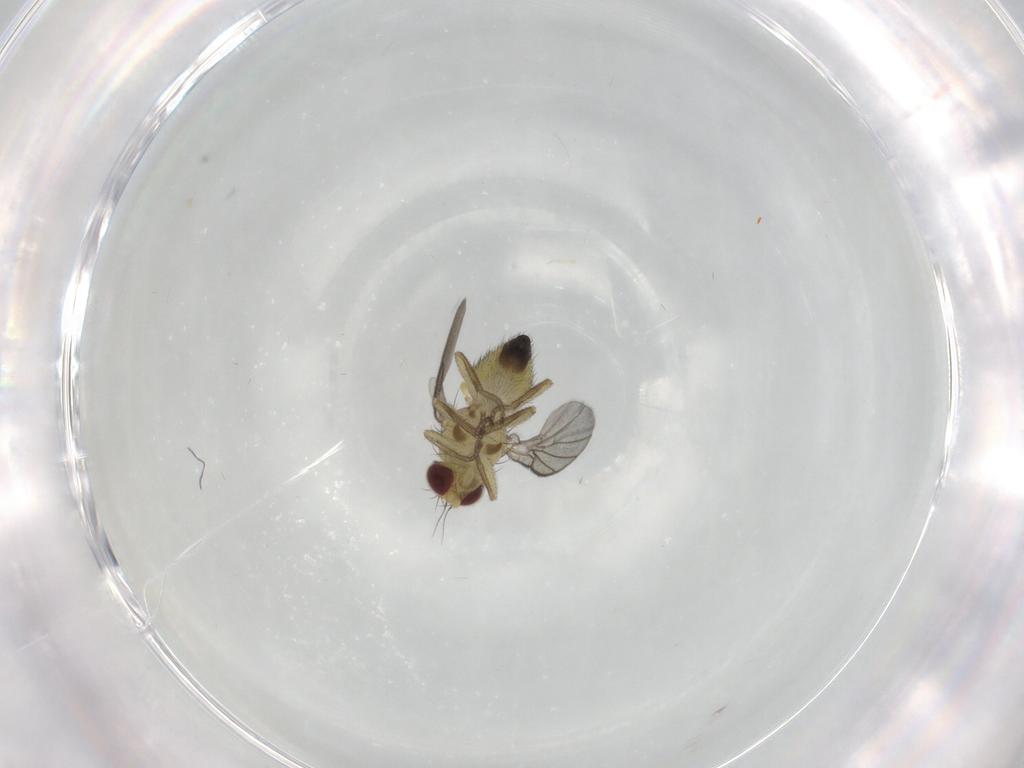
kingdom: Animalia
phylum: Arthropoda
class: Insecta
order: Diptera
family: Agromyzidae
